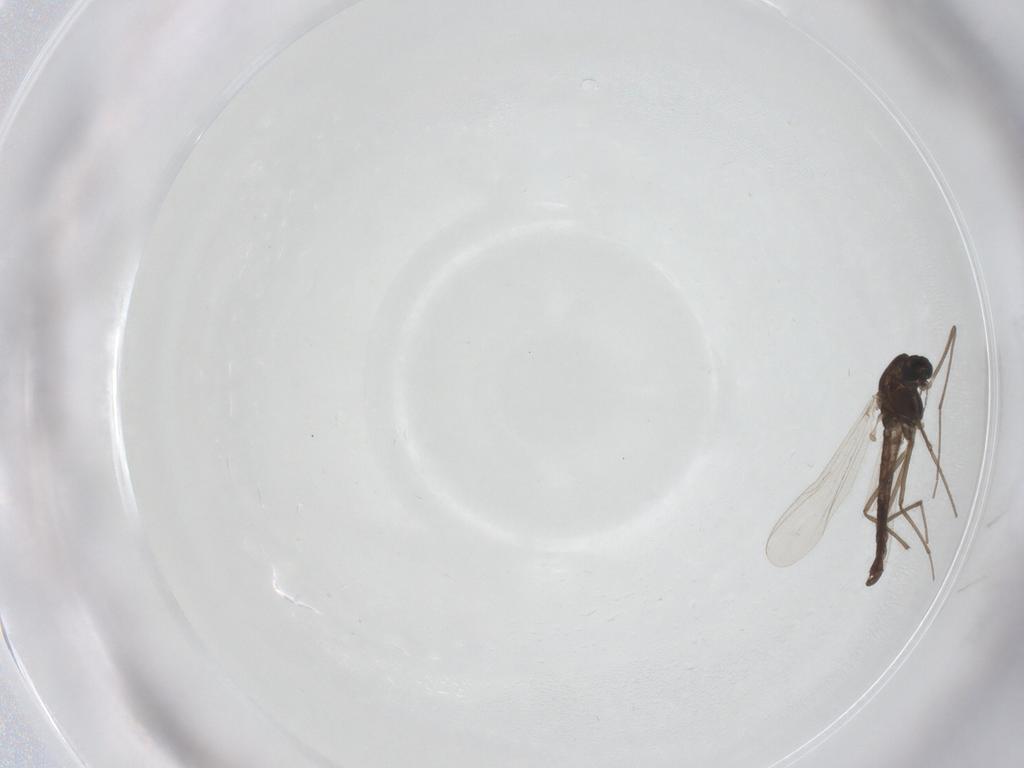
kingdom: Animalia
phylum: Arthropoda
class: Insecta
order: Diptera
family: Chironomidae
